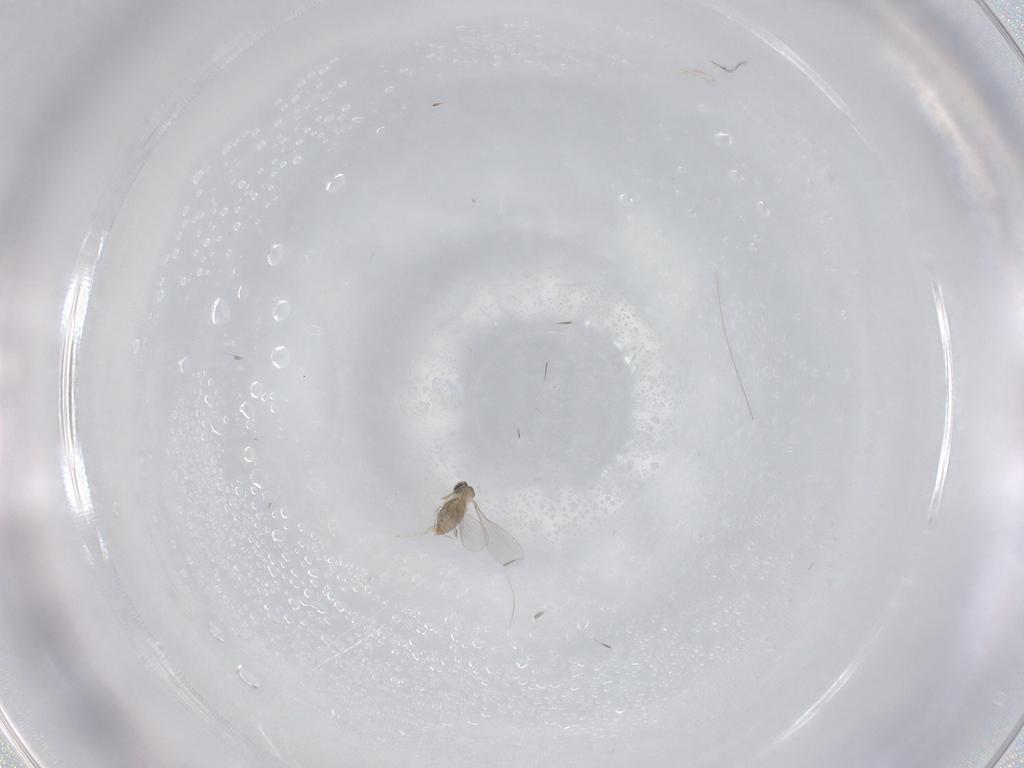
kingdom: Animalia
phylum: Arthropoda
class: Insecta
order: Diptera
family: Cecidomyiidae
